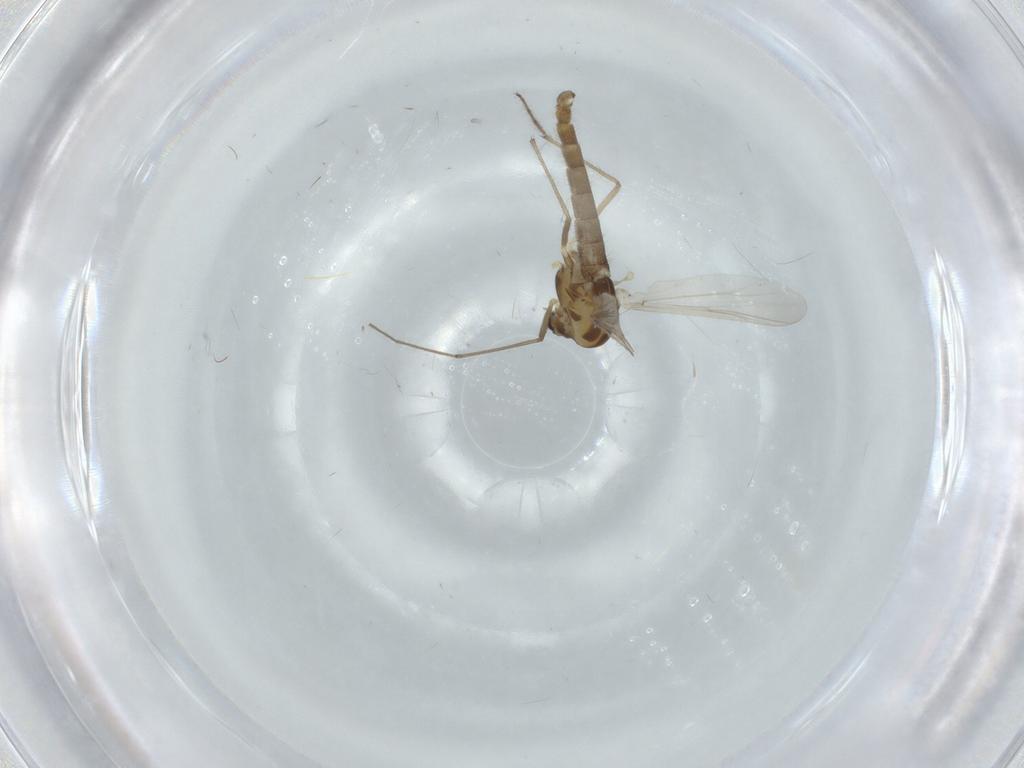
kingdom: Animalia
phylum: Arthropoda
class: Insecta
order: Diptera
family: Chironomidae
